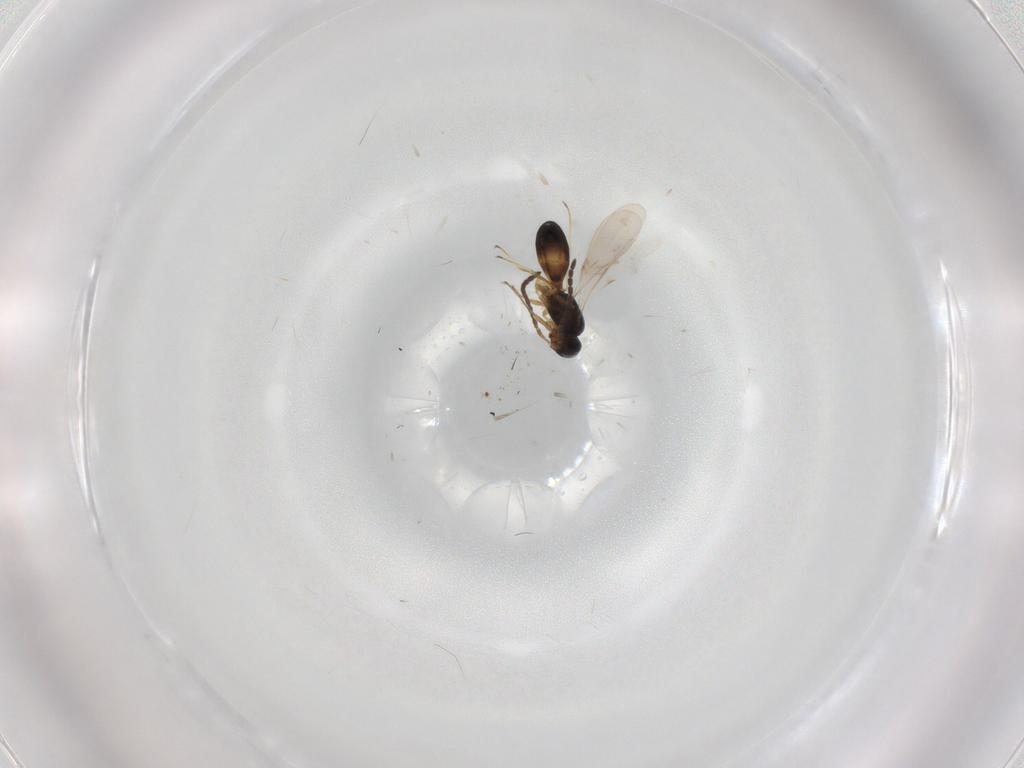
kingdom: Animalia
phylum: Arthropoda
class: Insecta
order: Hymenoptera
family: Scelionidae
